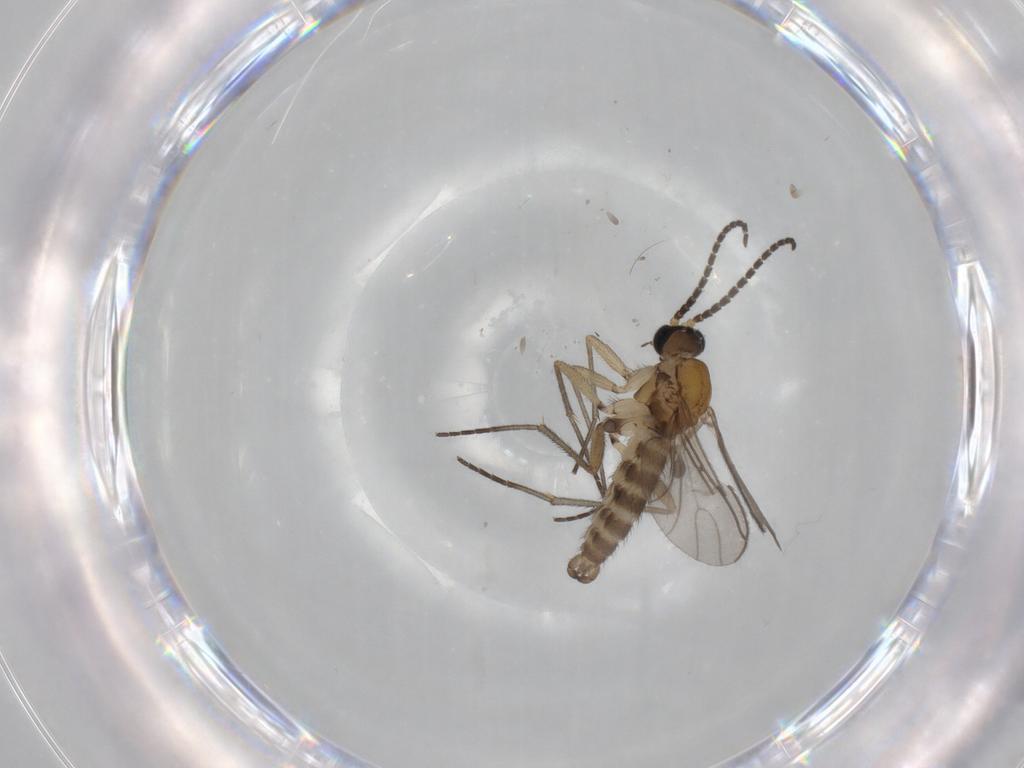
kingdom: Animalia
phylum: Arthropoda
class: Insecta
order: Diptera
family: Sciaridae
